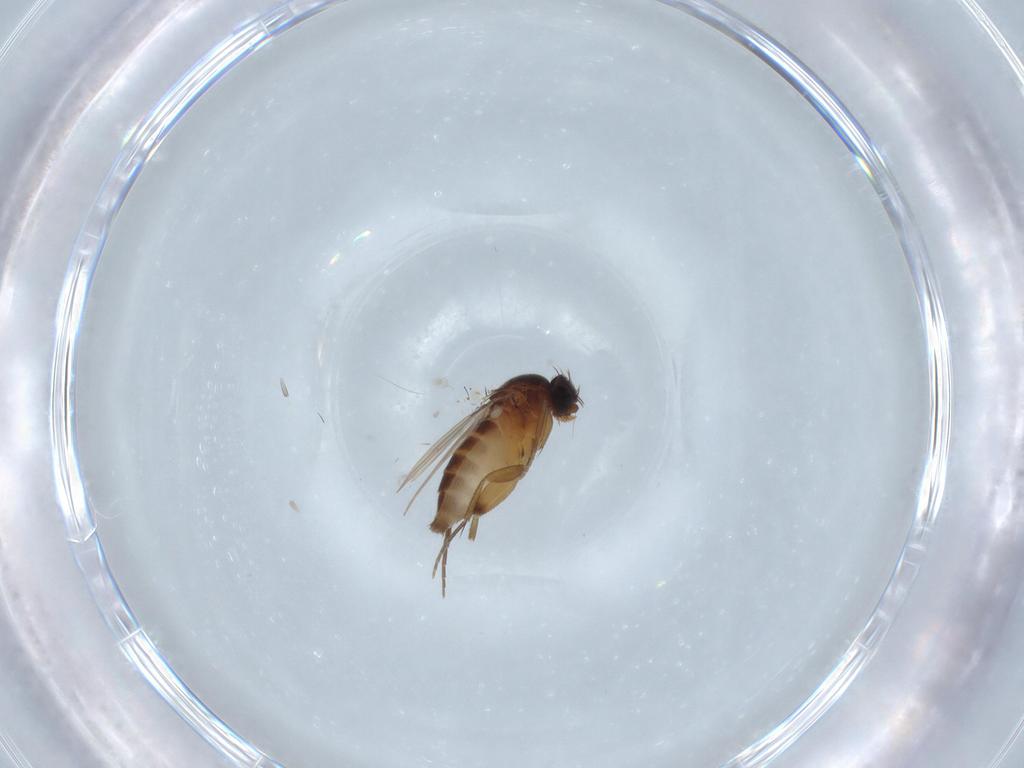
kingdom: Animalia
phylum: Arthropoda
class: Insecta
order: Diptera
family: Phoridae
